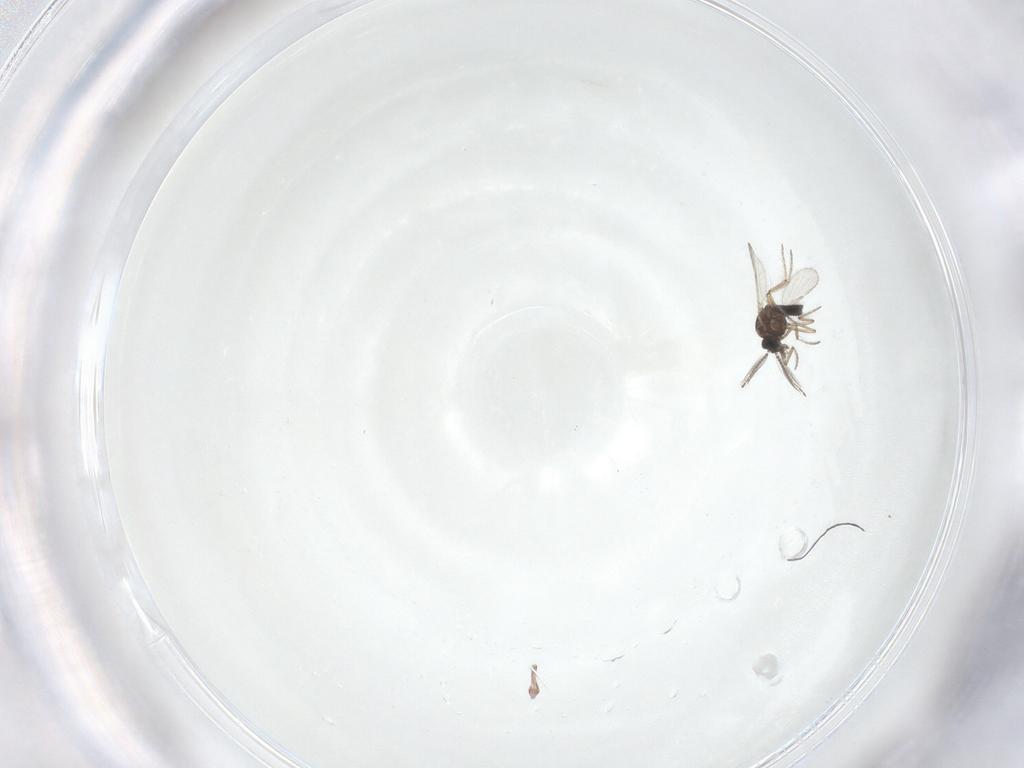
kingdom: Animalia
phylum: Arthropoda
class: Insecta
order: Diptera
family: Ceratopogonidae
